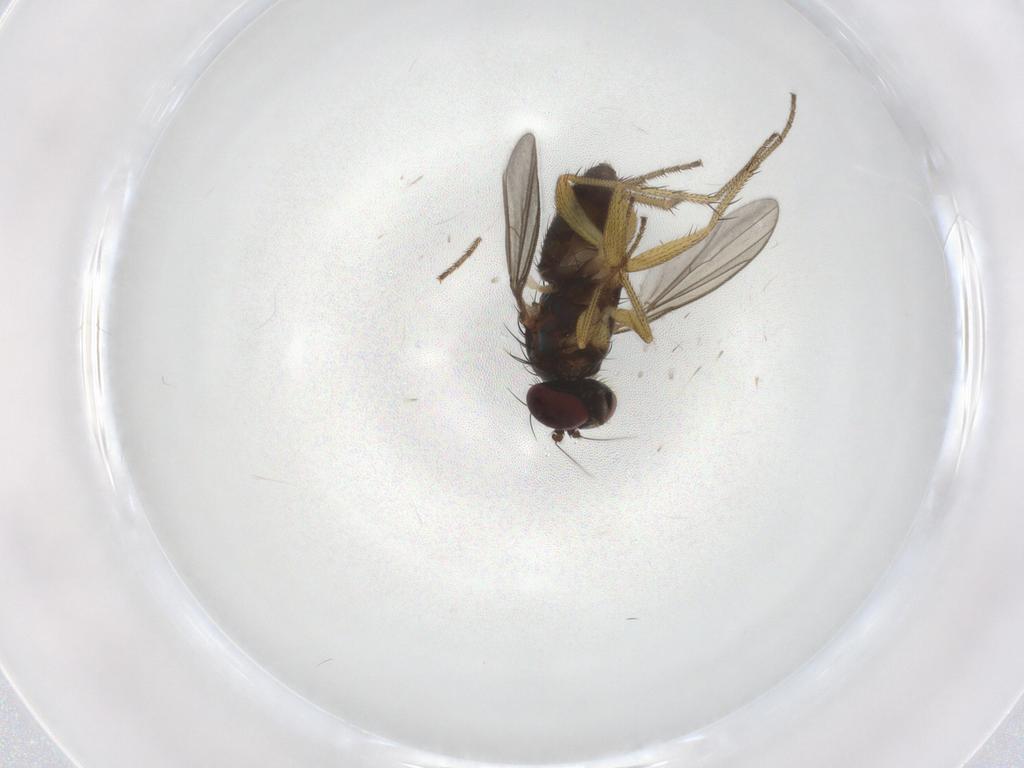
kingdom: Animalia
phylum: Arthropoda
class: Insecta
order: Diptera
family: Dolichopodidae
